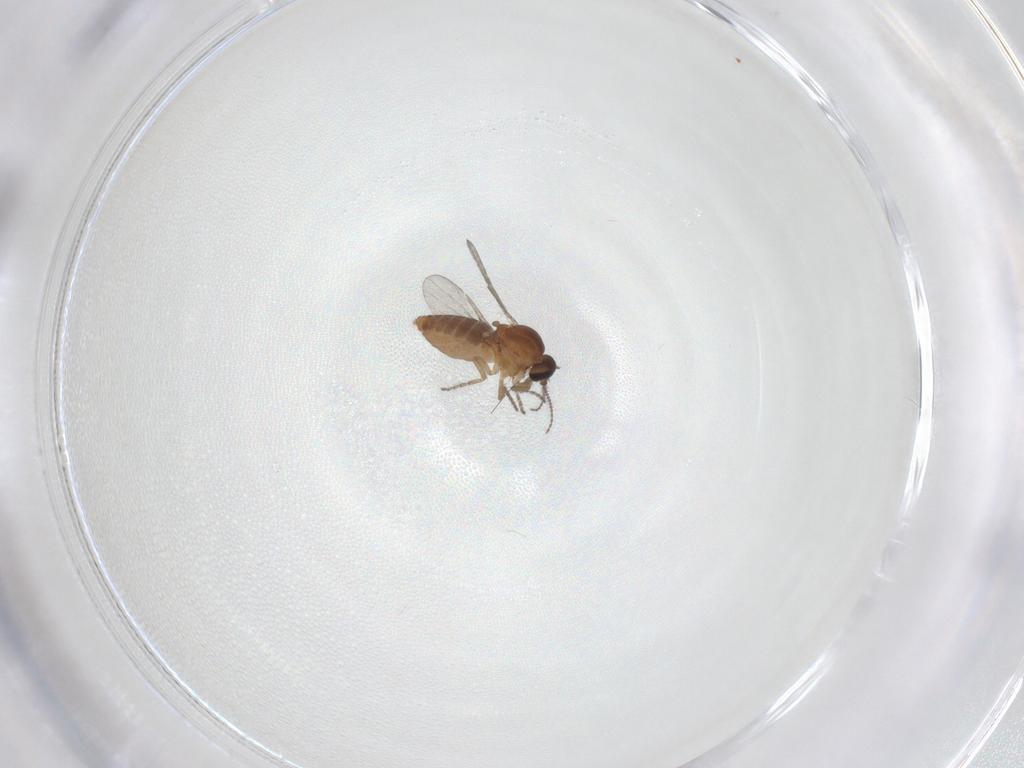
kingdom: Animalia
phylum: Arthropoda
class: Insecta
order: Diptera
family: Ceratopogonidae
